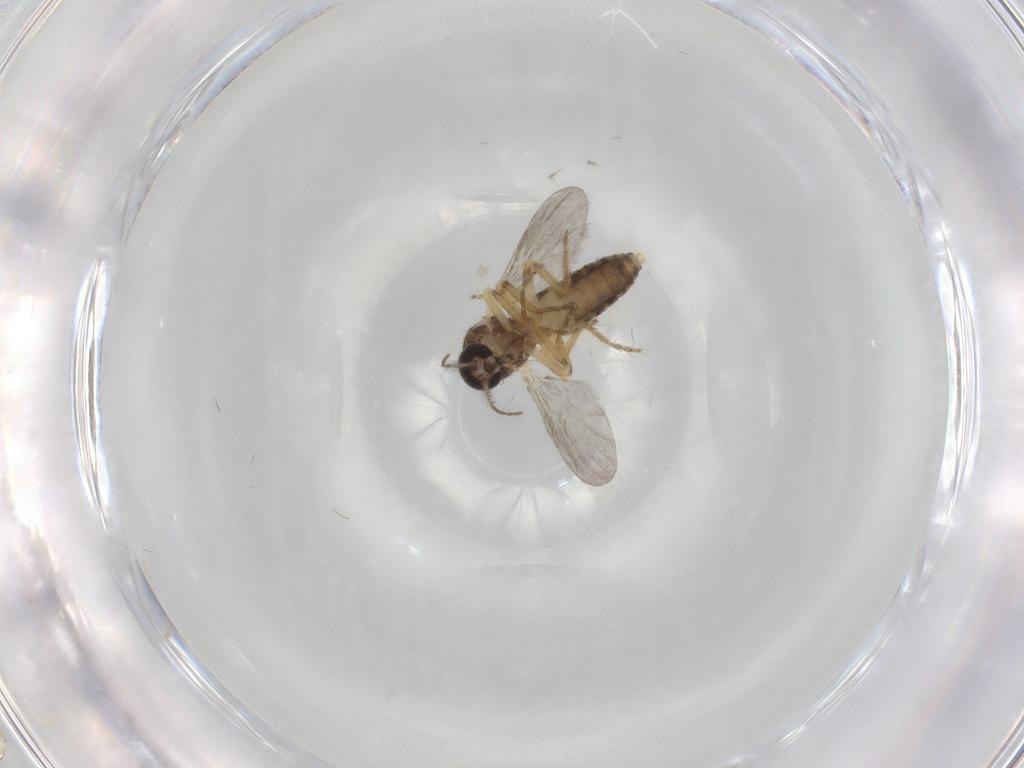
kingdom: Animalia
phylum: Arthropoda
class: Insecta
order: Diptera
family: Ceratopogonidae
